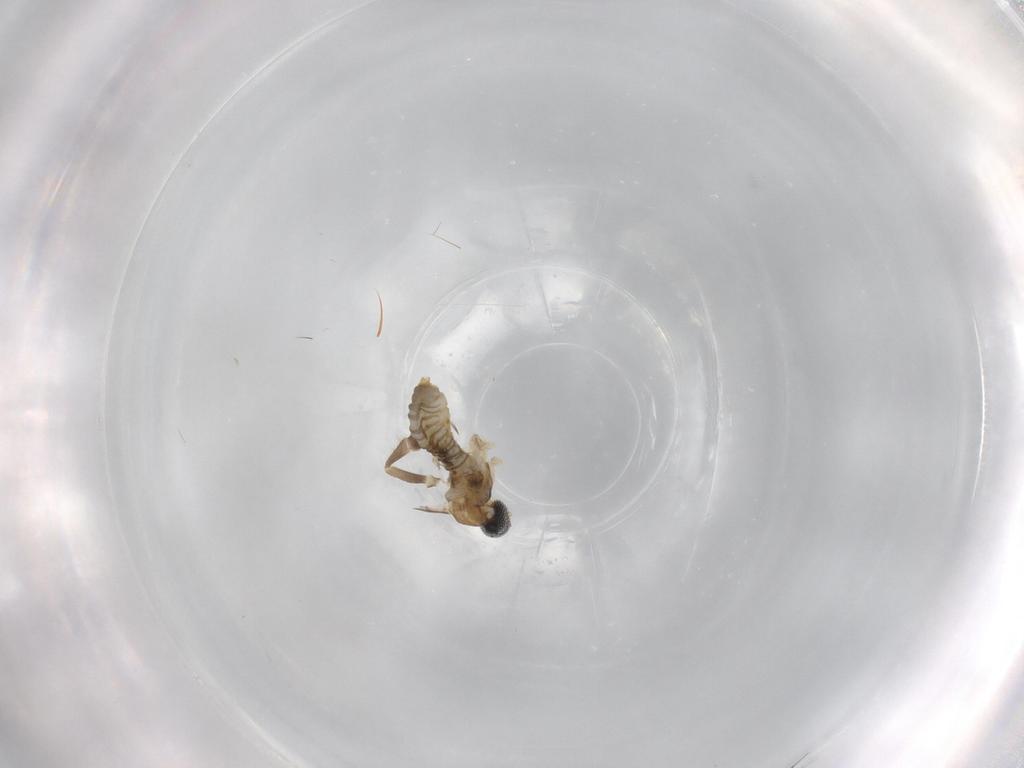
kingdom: Animalia
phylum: Arthropoda
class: Insecta
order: Diptera
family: Cecidomyiidae
